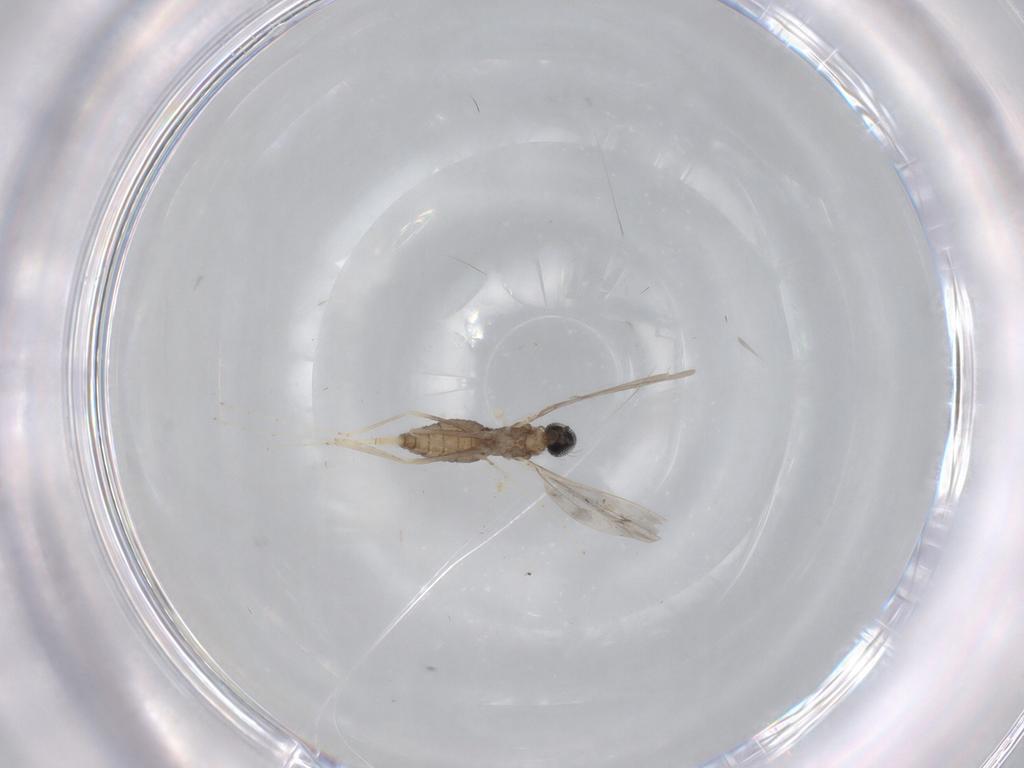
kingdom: Animalia
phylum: Arthropoda
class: Insecta
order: Diptera
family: Cecidomyiidae
